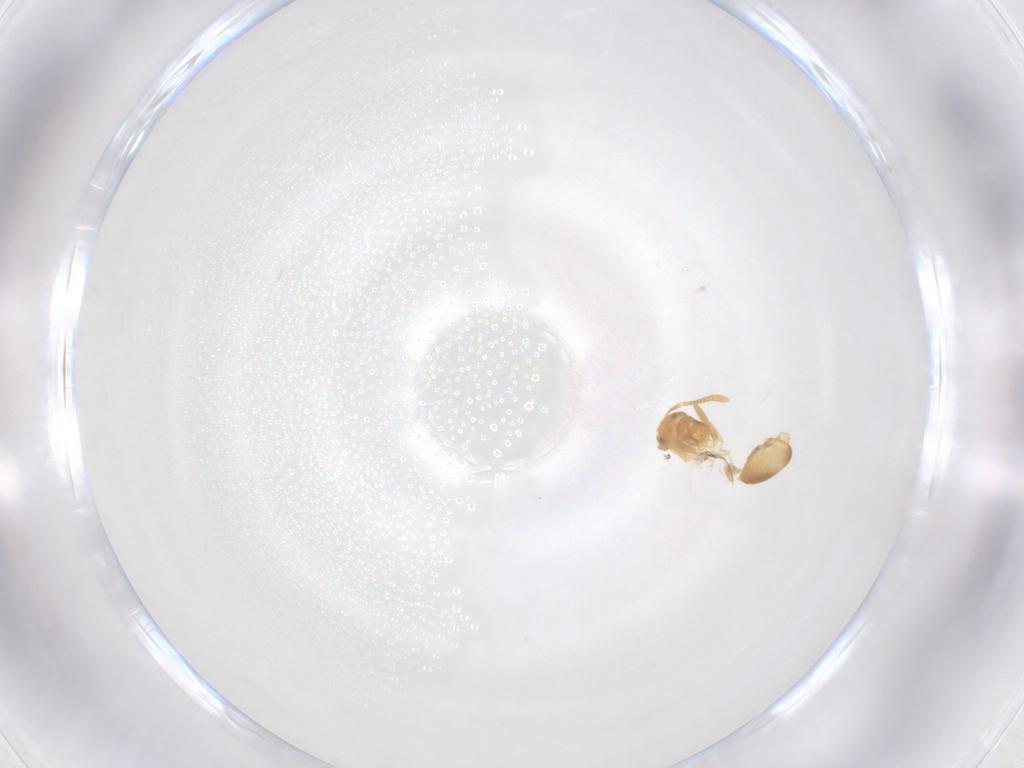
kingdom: Animalia
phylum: Arthropoda
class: Insecta
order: Hymenoptera
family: Formicidae
